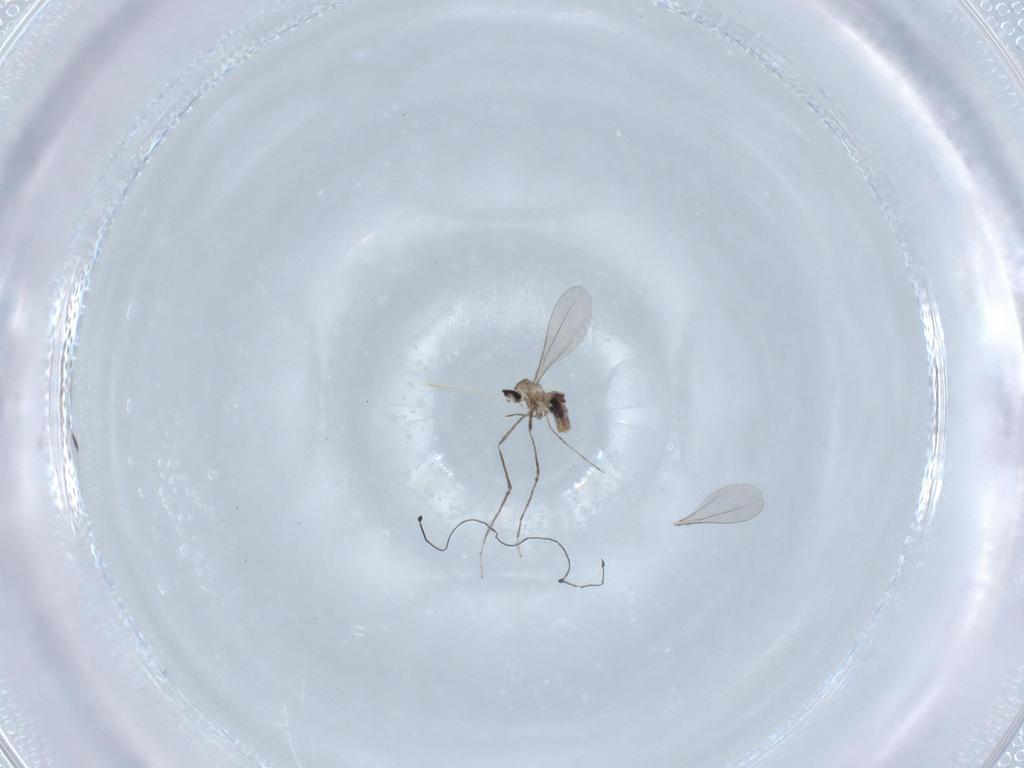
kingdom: Animalia
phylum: Arthropoda
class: Insecta
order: Diptera
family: Cecidomyiidae
